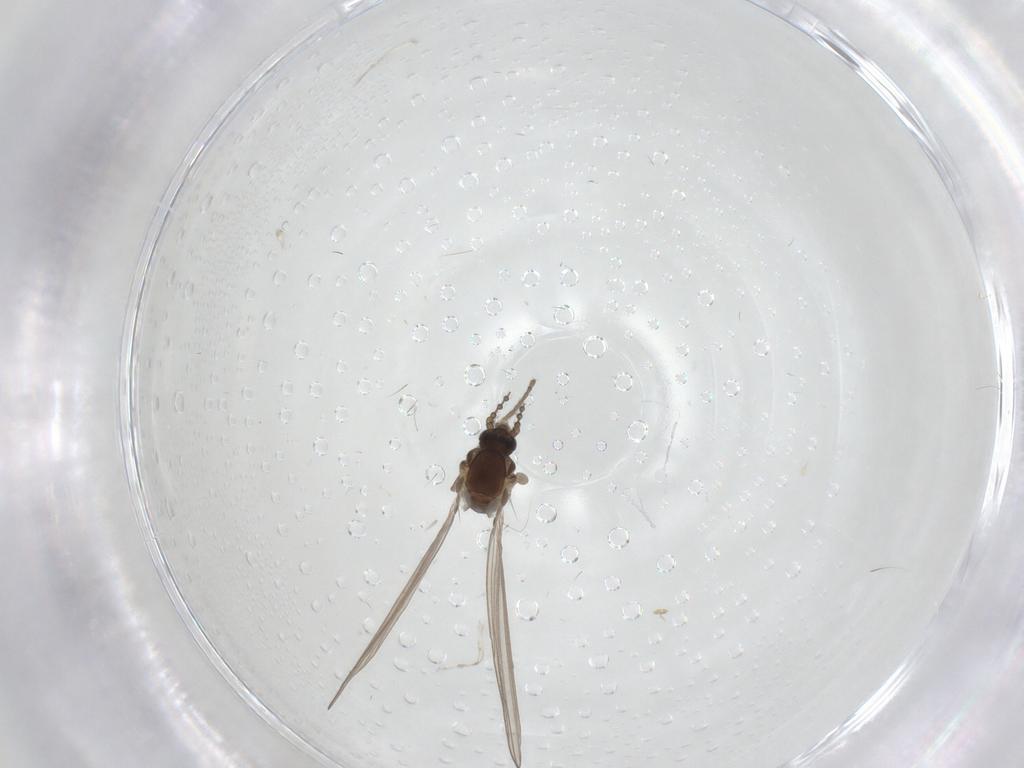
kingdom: Animalia
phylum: Arthropoda
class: Insecta
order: Diptera
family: Psychodidae
